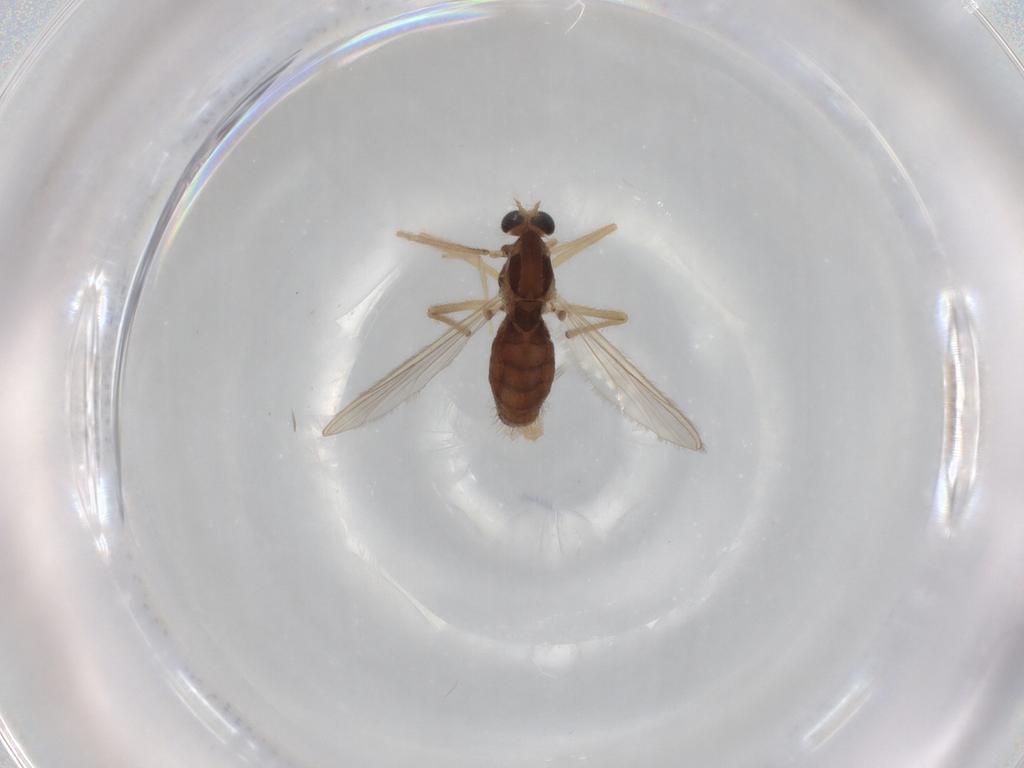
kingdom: Animalia
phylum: Arthropoda
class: Insecta
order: Diptera
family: Chironomidae
